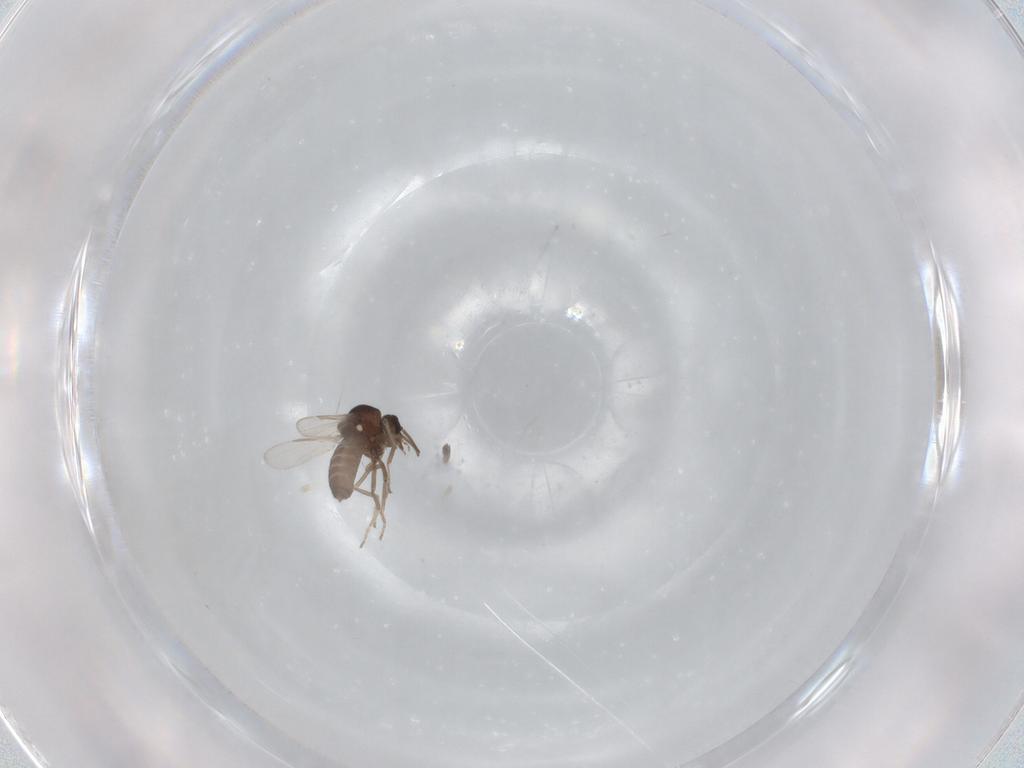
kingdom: Animalia
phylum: Arthropoda
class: Insecta
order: Diptera
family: Ceratopogonidae
